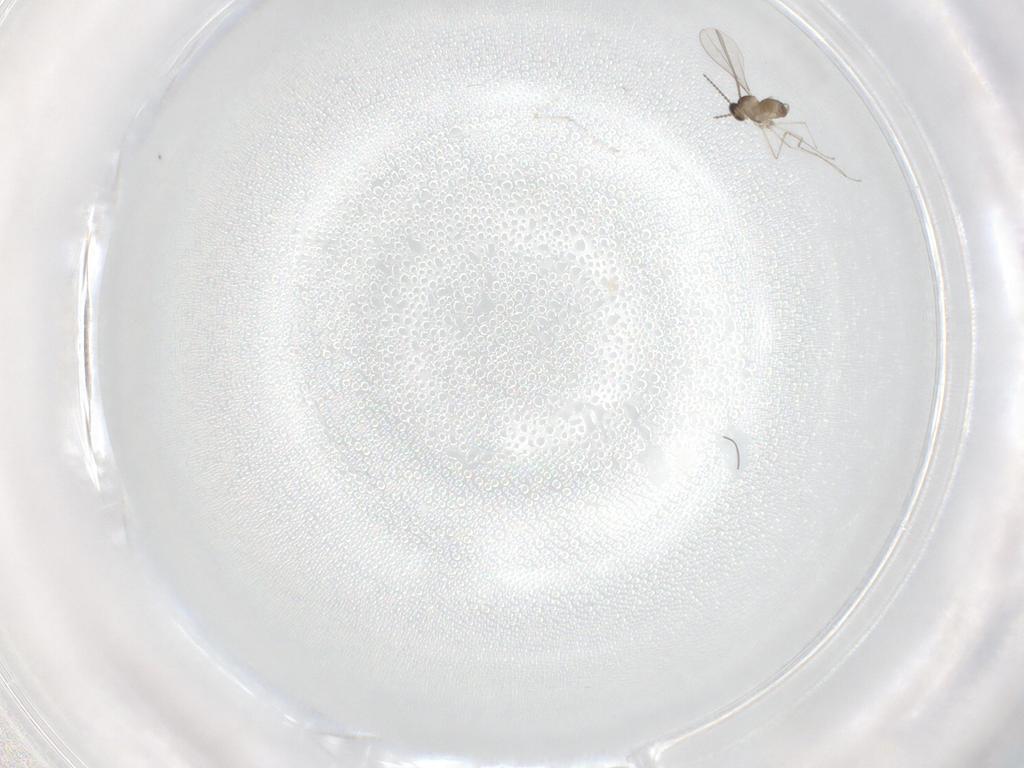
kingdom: Animalia
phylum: Arthropoda
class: Insecta
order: Diptera
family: Cecidomyiidae
